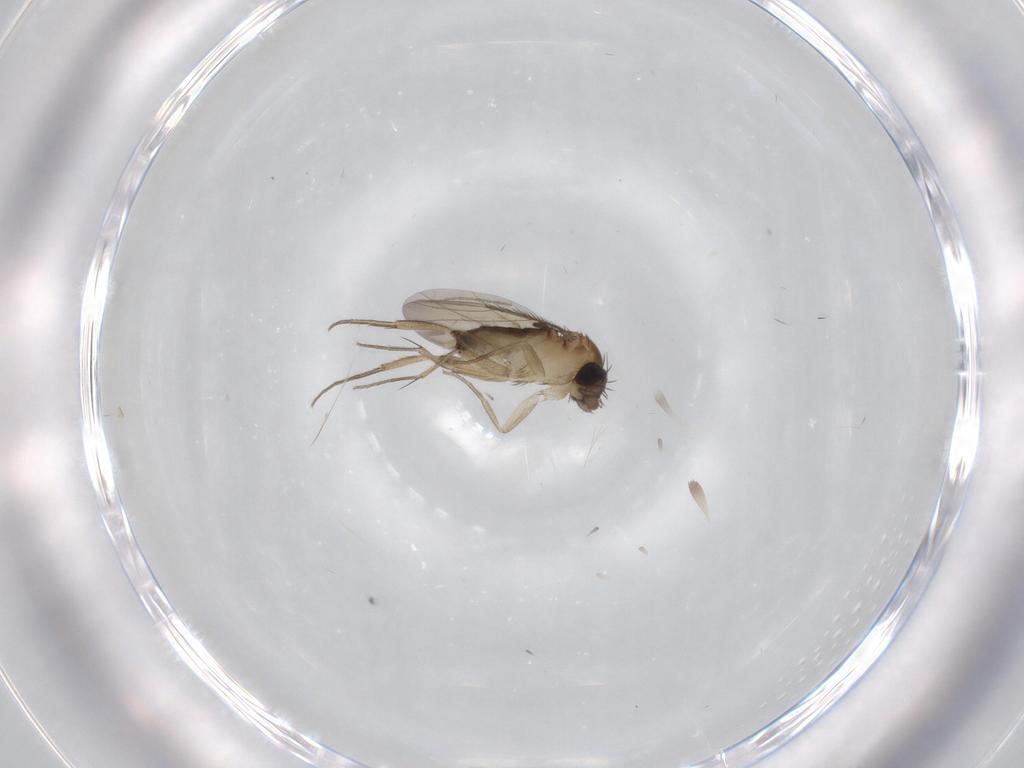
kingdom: Animalia
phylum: Arthropoda
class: Insecta
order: Diptera
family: Phoridae
